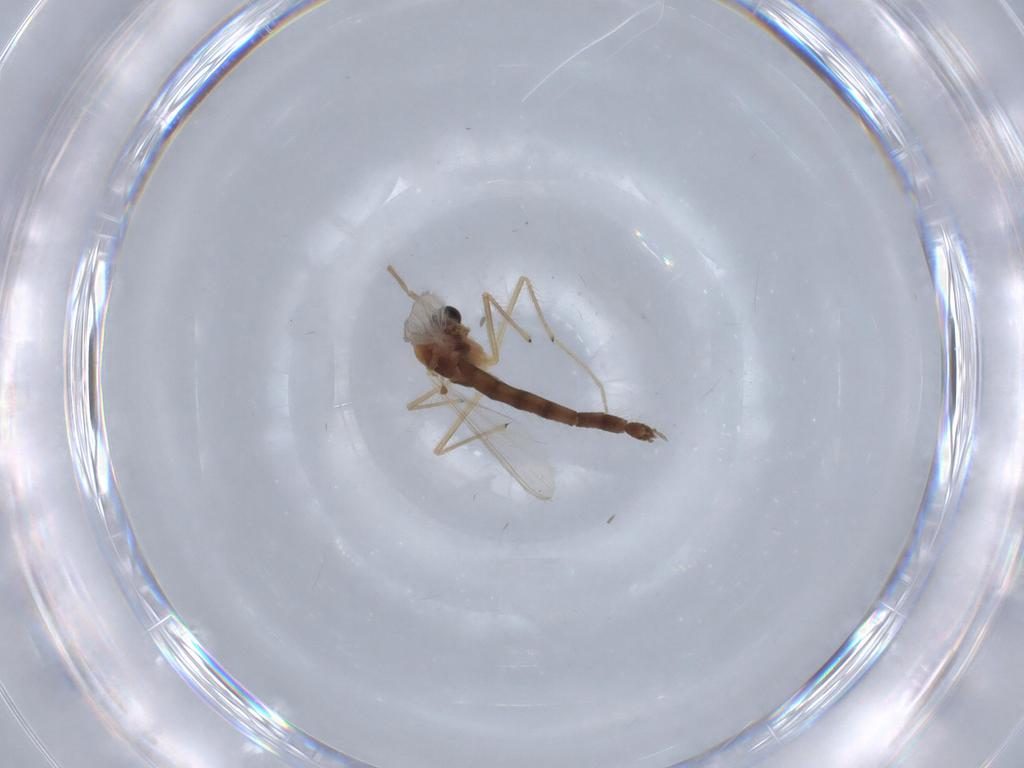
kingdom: Animalia
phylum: Arthropoda
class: Insecta
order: Diptera
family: Chironomidae
